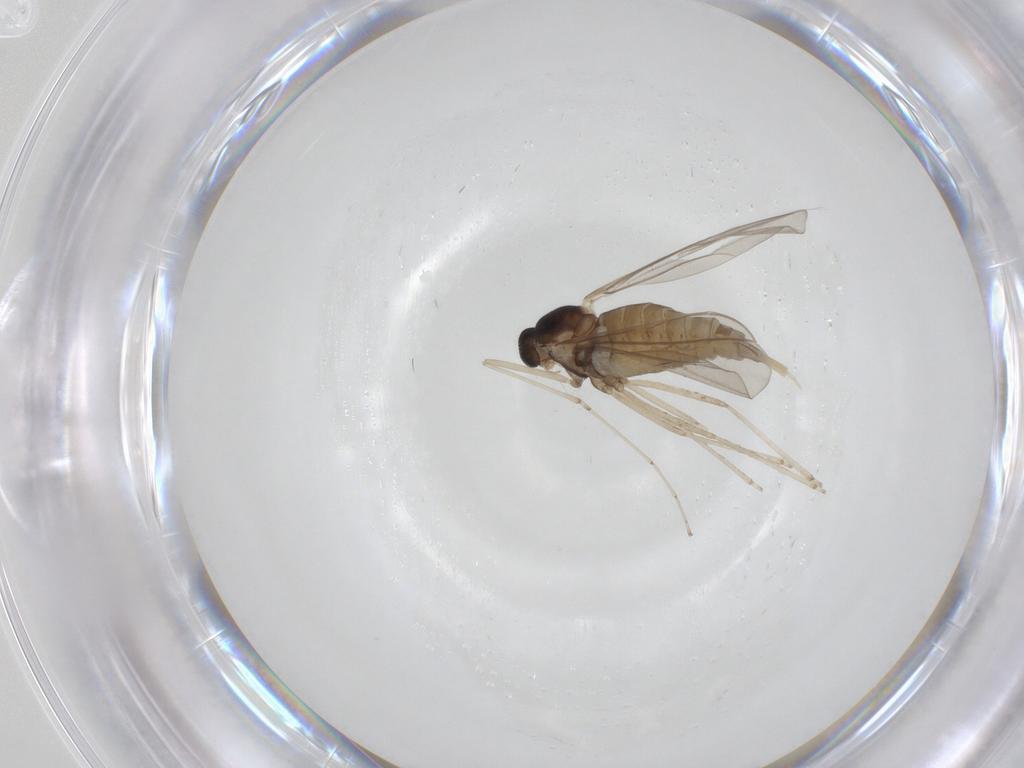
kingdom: Animalia
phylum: Arthropoda
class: Insecta
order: Diptera
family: Cecidomyiidae
